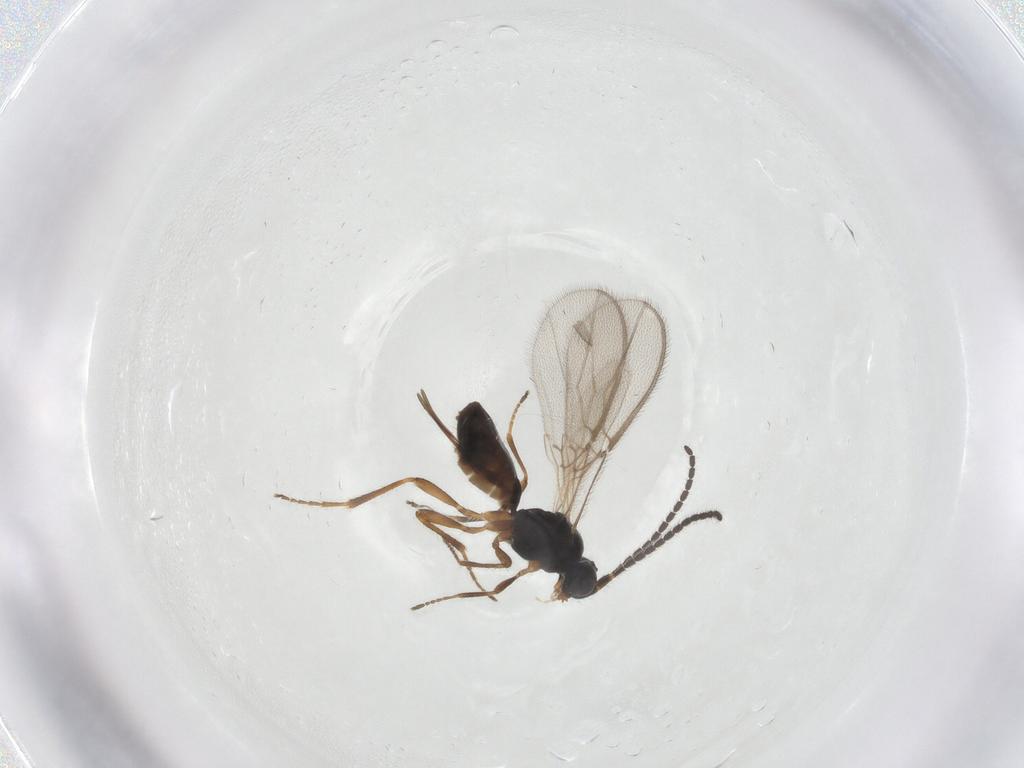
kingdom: Animalia
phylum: Arthropoda
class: Insecta
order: Hymenoptera
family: Braconidae
